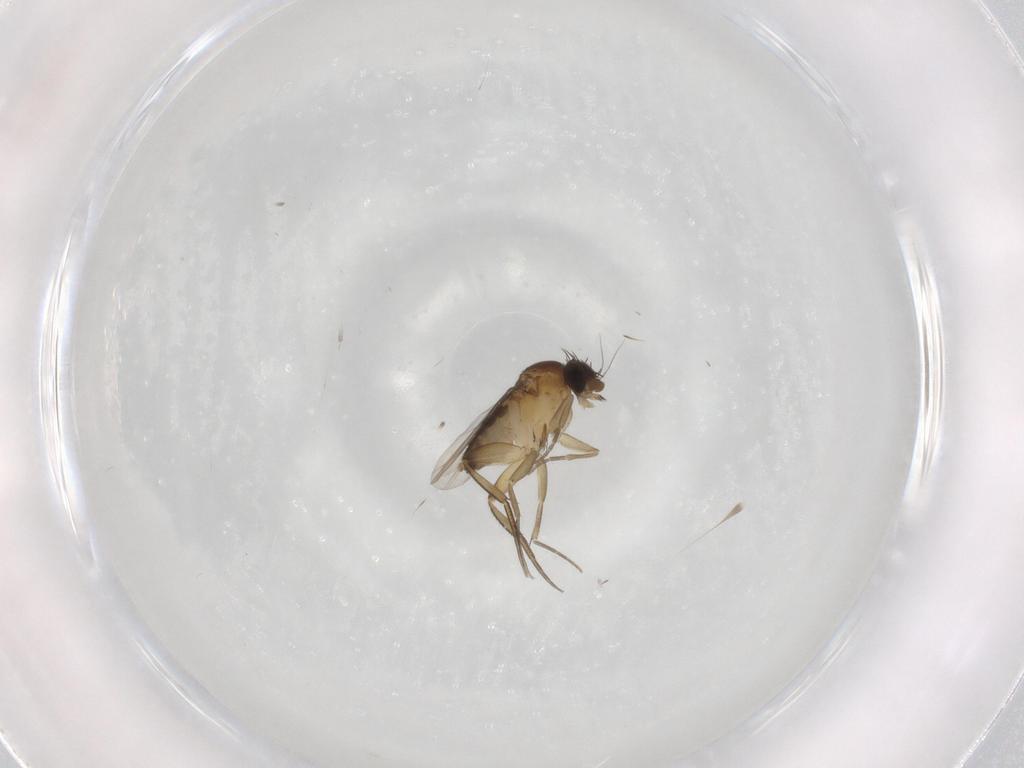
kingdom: Animalia
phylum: Arthropoda
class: Insecta
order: Diptera
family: Phoridae
